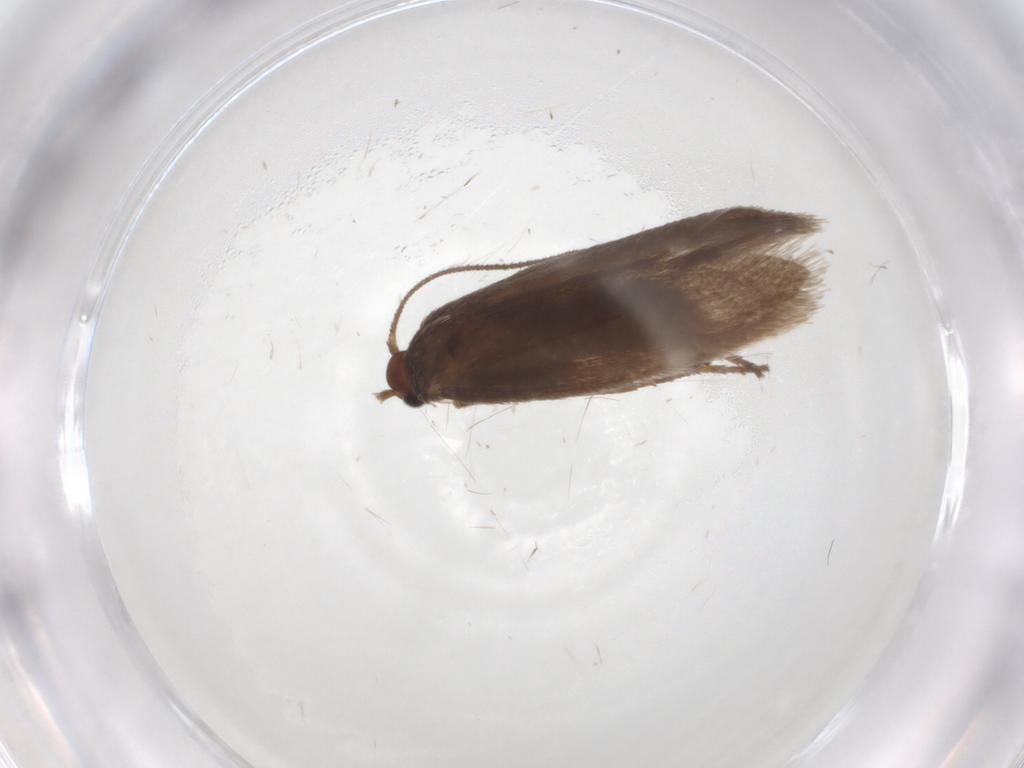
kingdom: Animalia
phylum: Arthropoda
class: Insecta
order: Lepidoptera
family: Limacodidae
